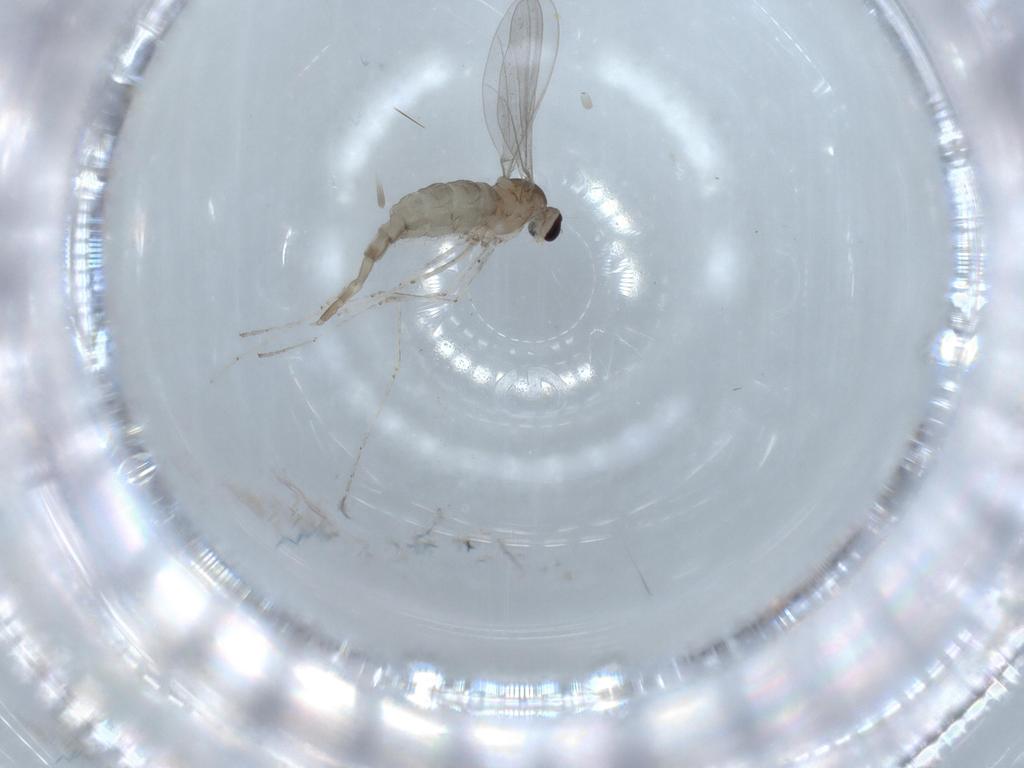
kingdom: Animalia
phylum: Arthropoda
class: Insecta
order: Diptera
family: Cecidomyiidae
